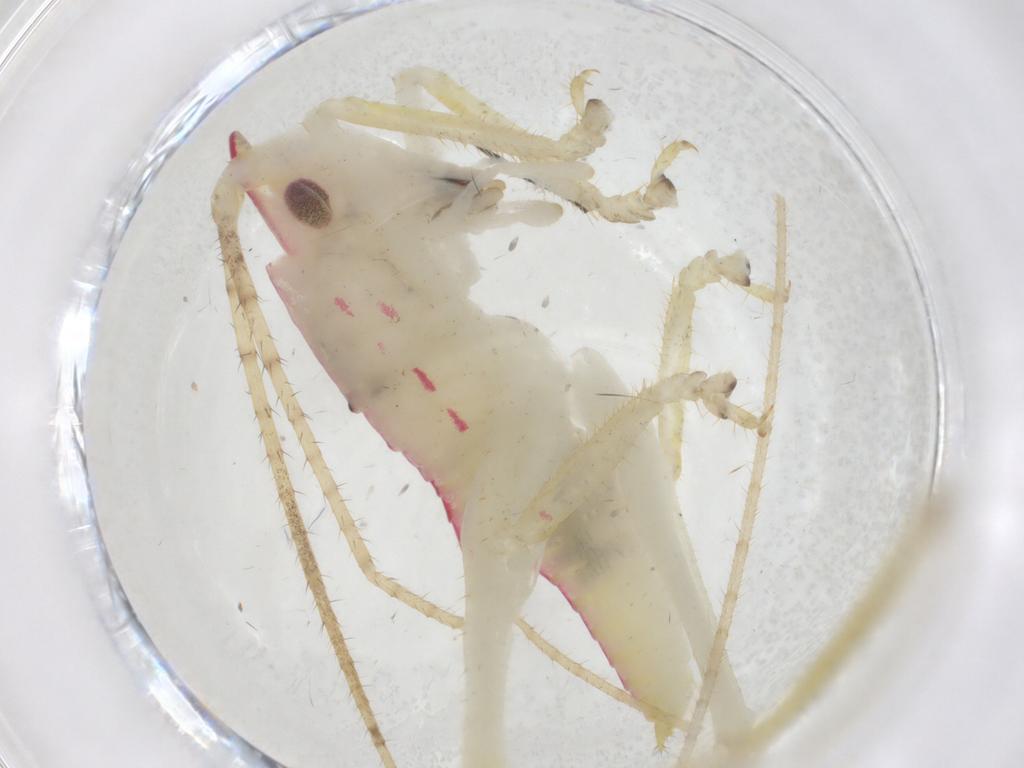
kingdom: Animalia
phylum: Arthropoda
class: Insecta
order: Orthoptera
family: Tettigoniidae
